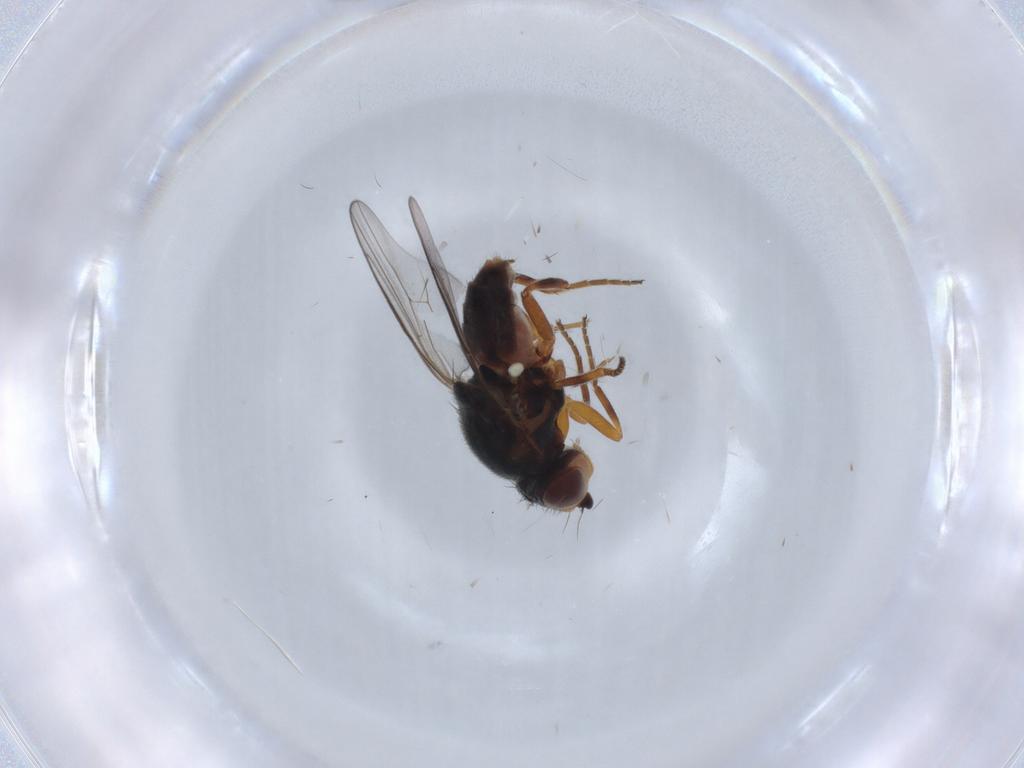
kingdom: Animalia
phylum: Arthropoda
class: Insecta
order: Diptera
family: Chloropidae
